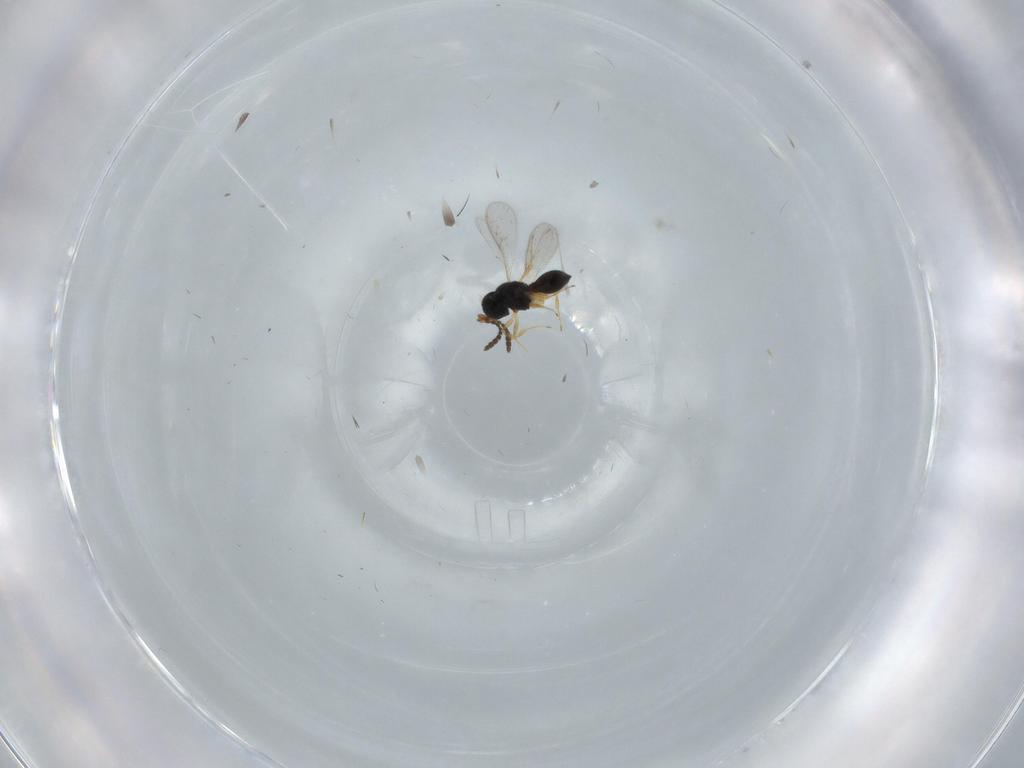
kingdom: Animalia
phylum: Arthropoda
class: Insecta
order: Hymenoptera
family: Scelionidae
